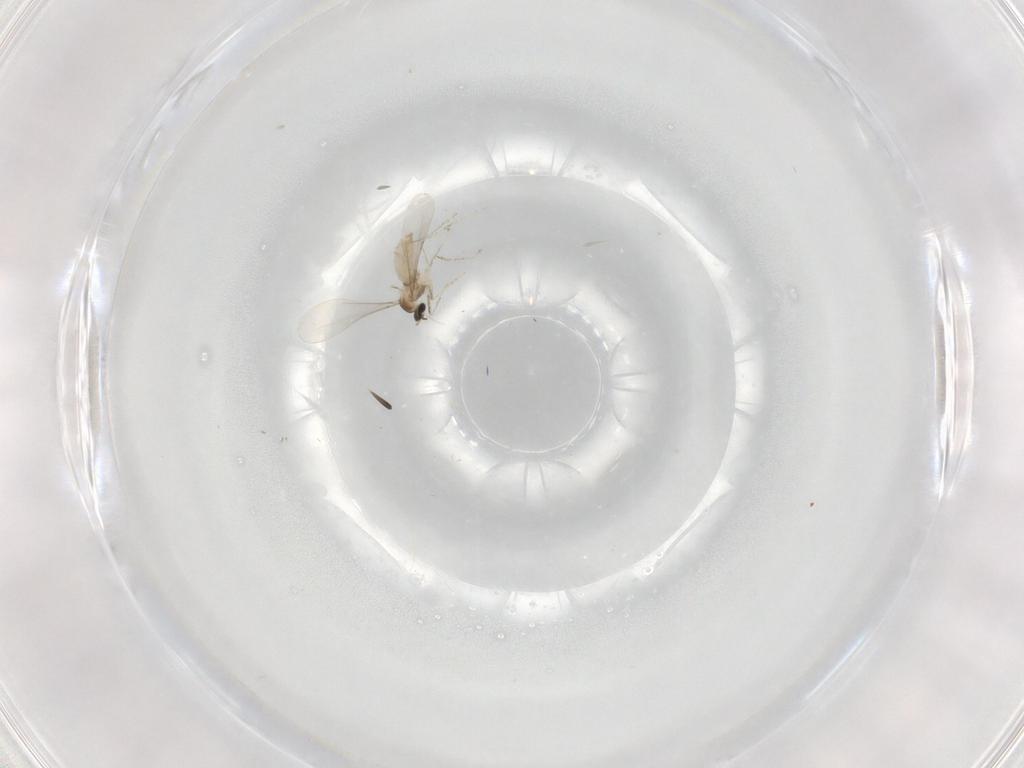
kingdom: Animalia
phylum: Arthropoda
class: Insecta
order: Diptera
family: Cecidomyiidae
